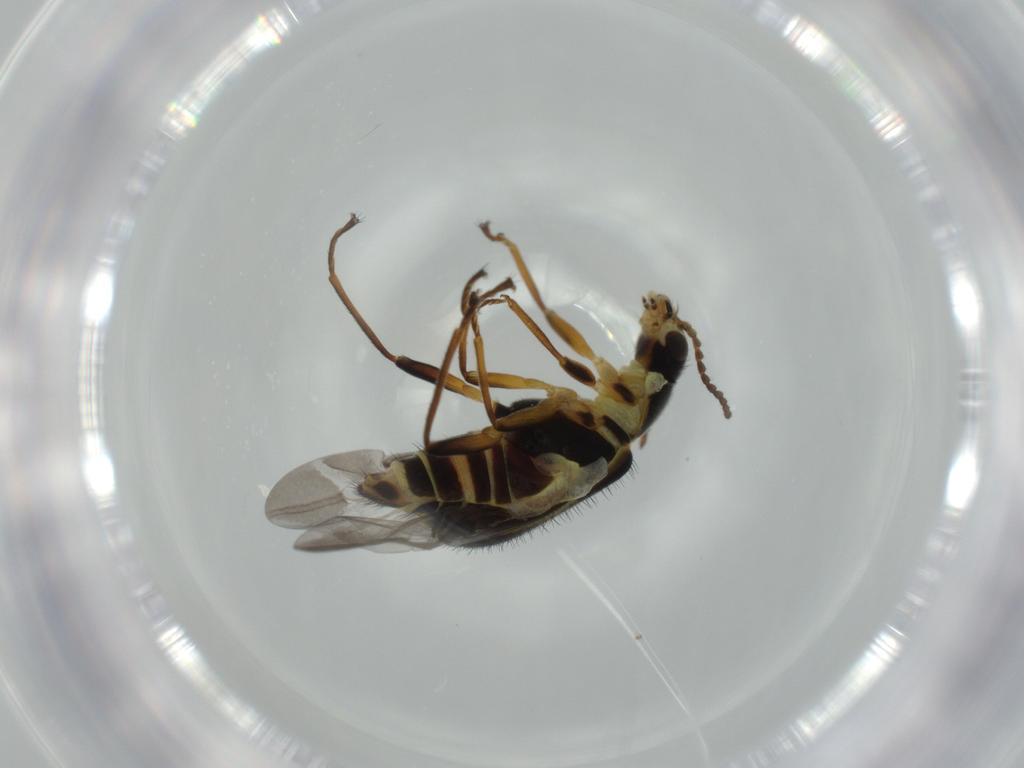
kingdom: Animalia
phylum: Arthropoda
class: Insecta
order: Coleoptera
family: Melyridae
